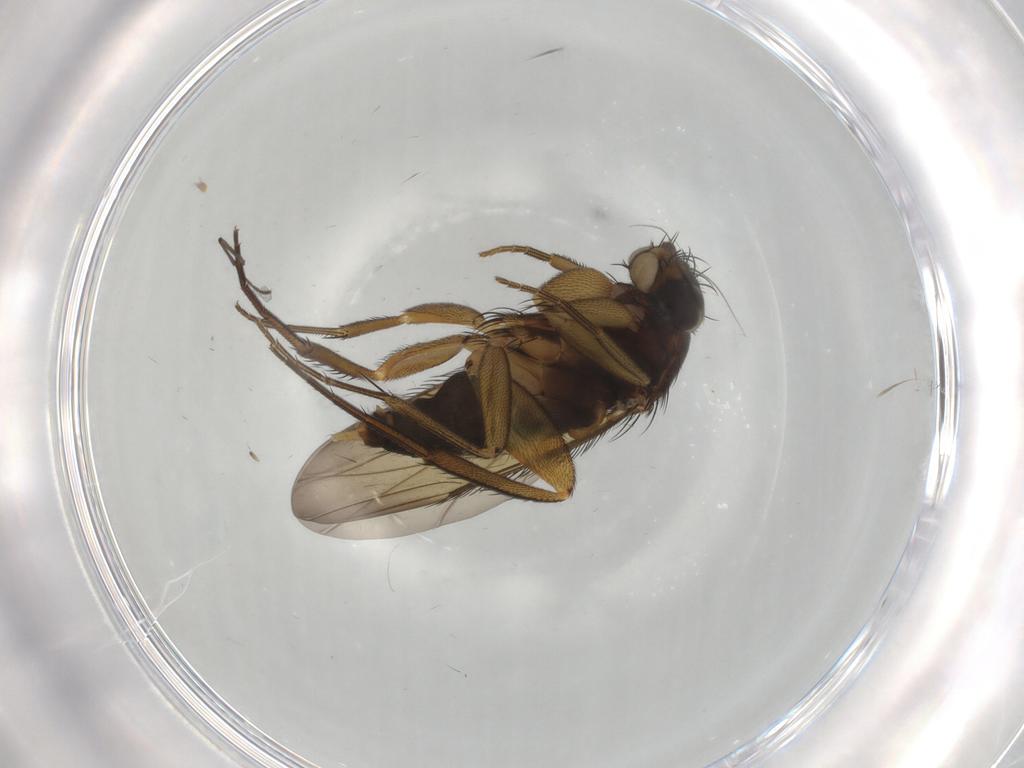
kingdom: Animalia
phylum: Arthropoda
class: Insecta
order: Diptera
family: Phoridae
